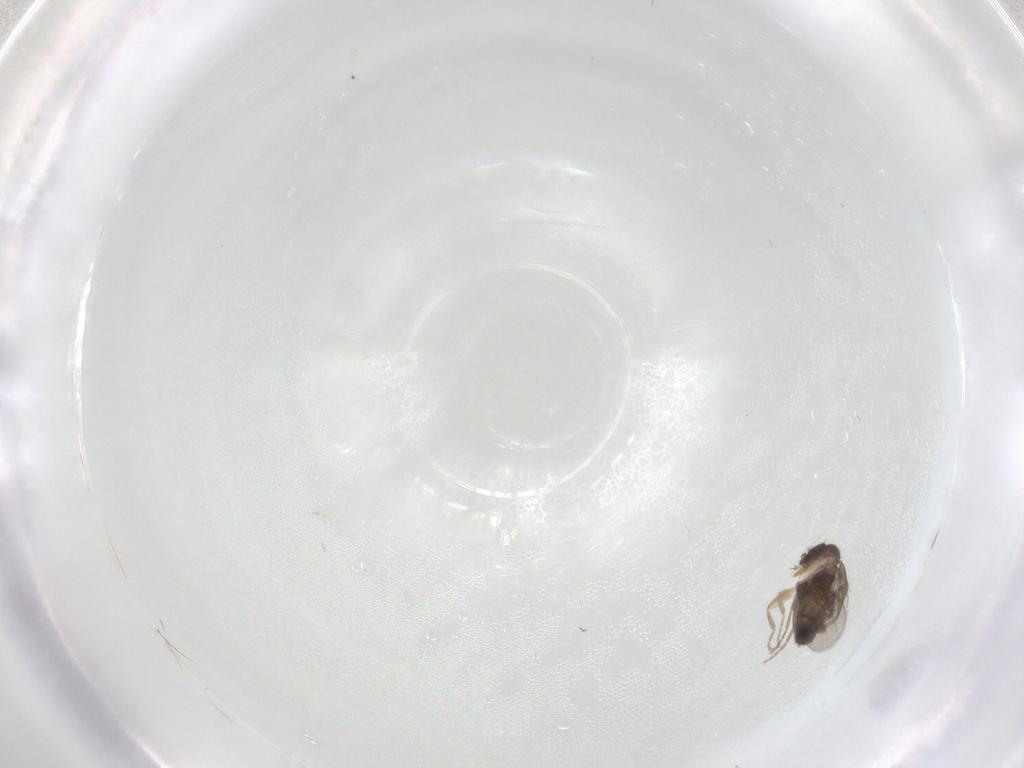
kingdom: Animalia
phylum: Arthropoda
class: Insecta
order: Diptera
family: Phoridae
